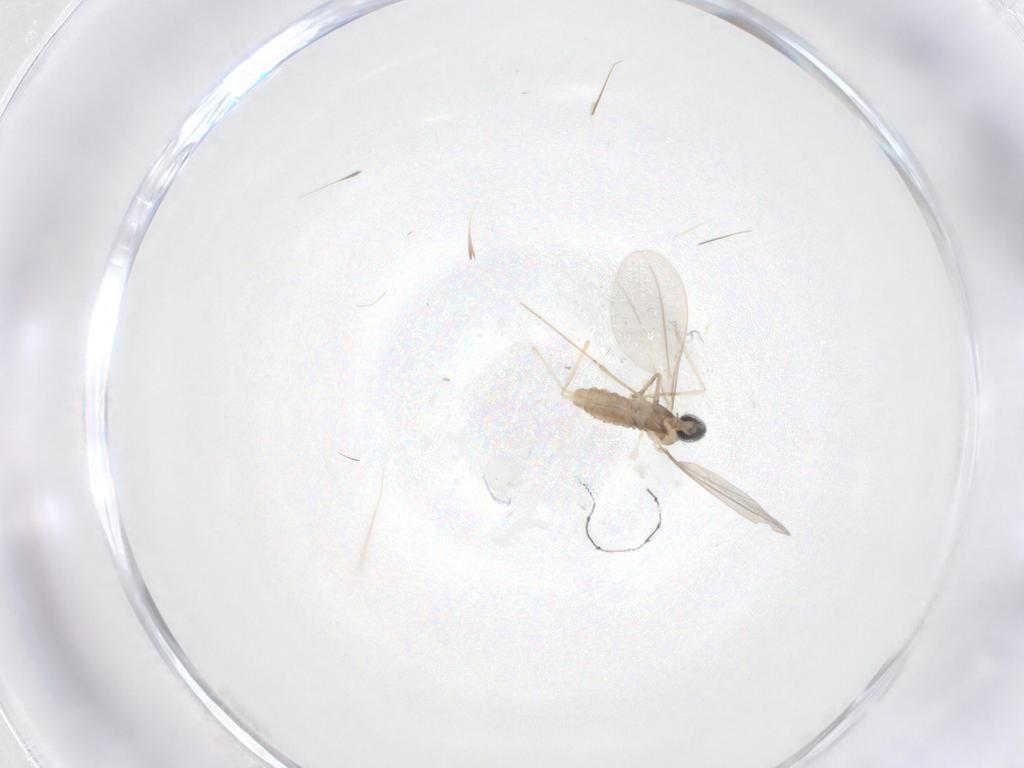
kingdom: Animalia
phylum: Arthropoda
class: Insecta
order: Diptera
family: Cecidomyiidae
